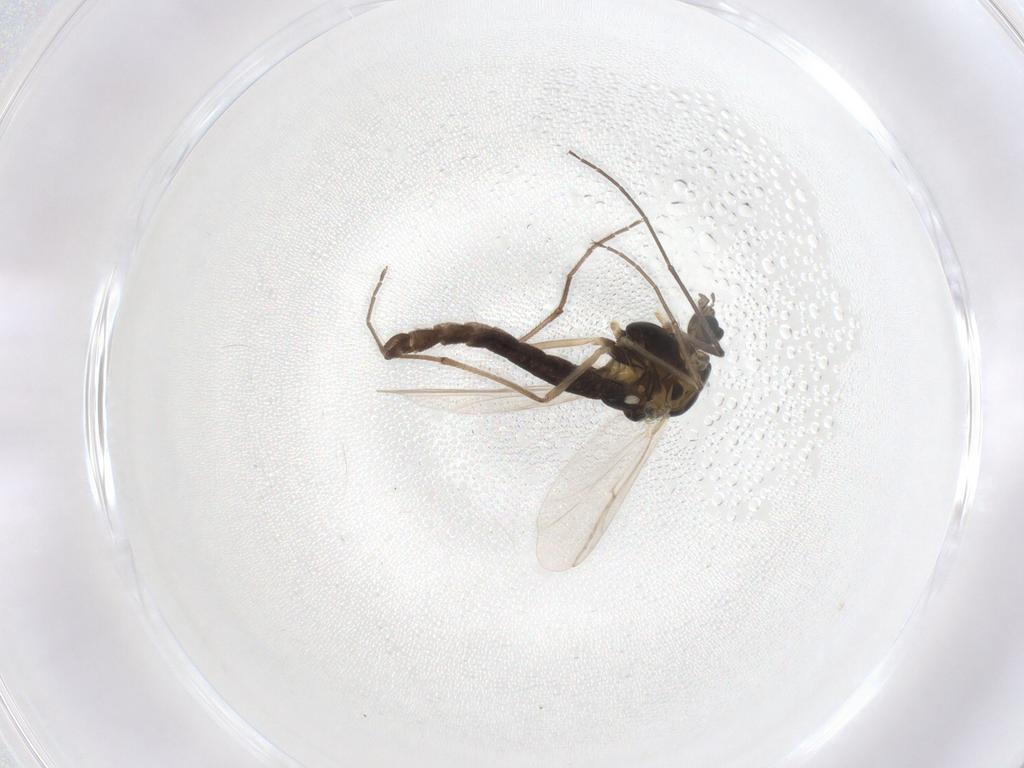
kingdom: Animalia
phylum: Arthropoda
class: Insecta
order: Diptera
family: Chironomidae
